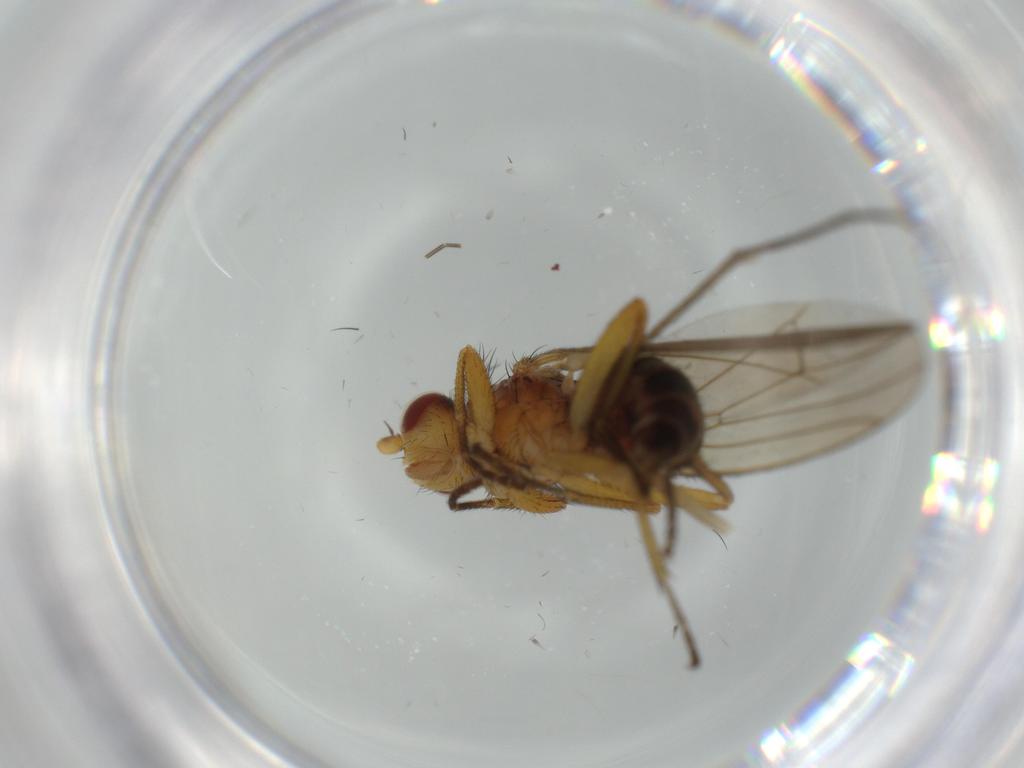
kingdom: Animalia
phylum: Arthropoda
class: Insecta
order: Diptera
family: Heleomyzidae
